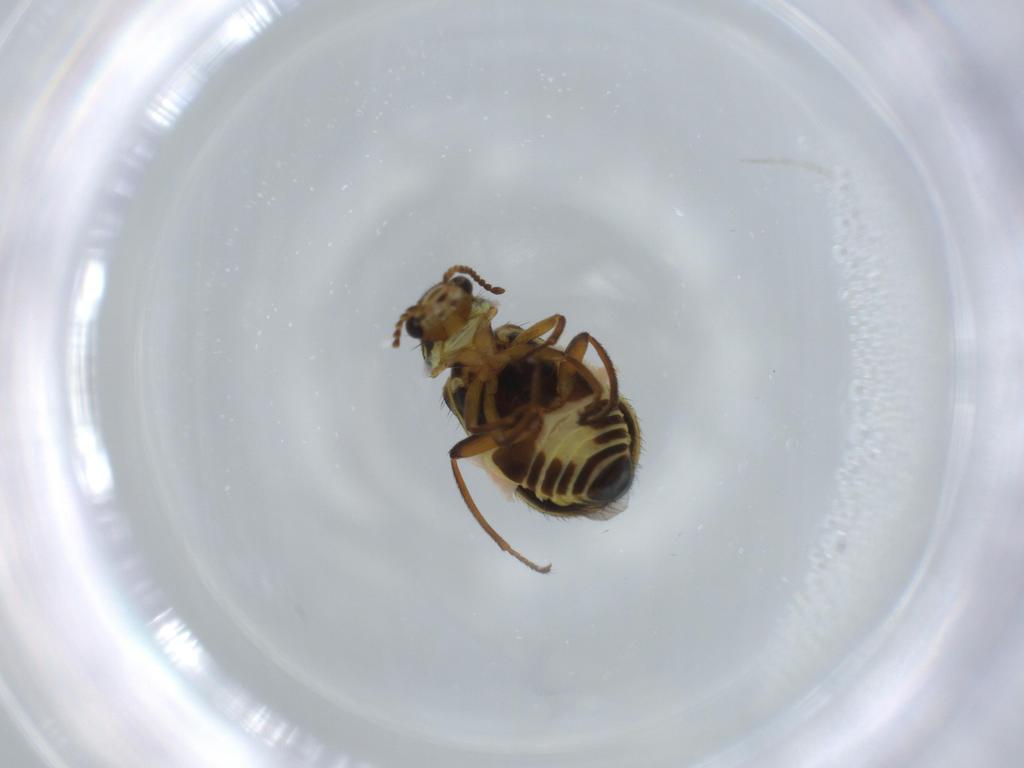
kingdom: Animalia
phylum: Arthropoda
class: Insecta
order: Coleoptera
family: Melyridae
